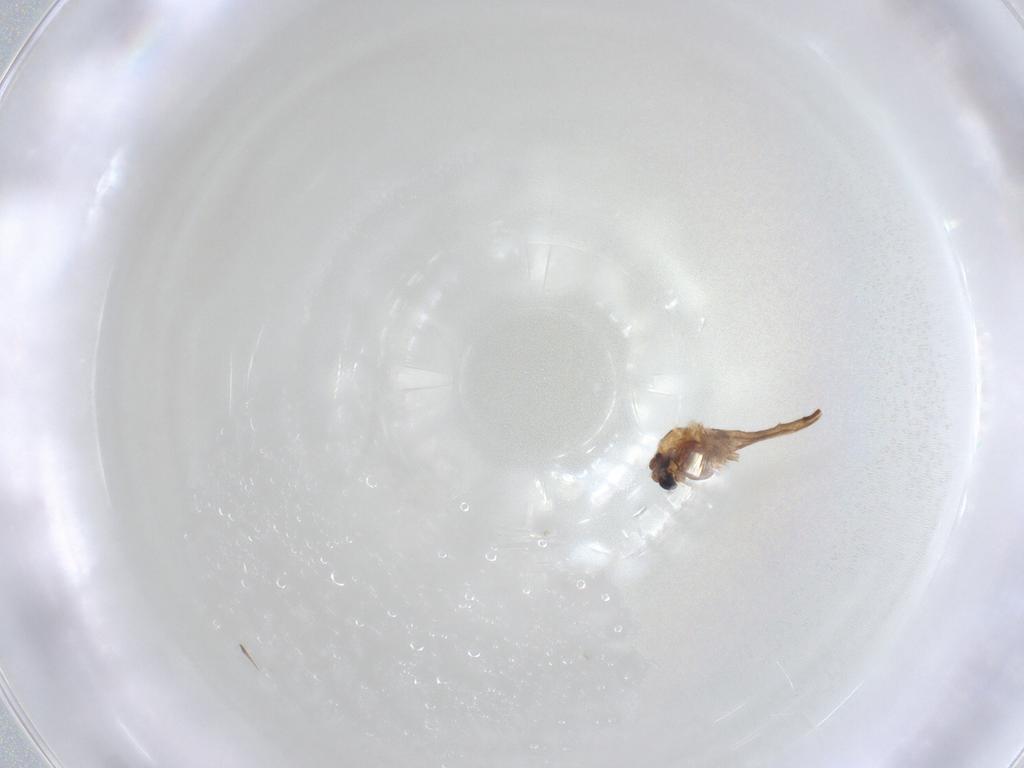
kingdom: Animalia
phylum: Arthropoda
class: Insecta
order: Diptera
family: Chironomidae
